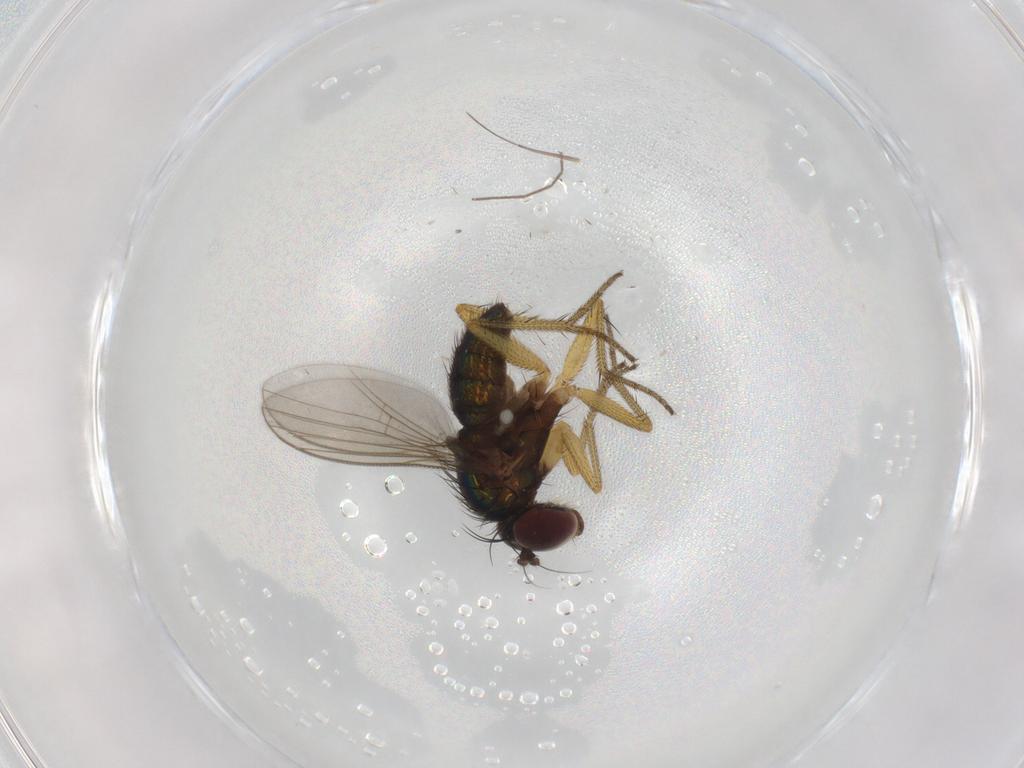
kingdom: Animalia
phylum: Arthropoda
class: Insecta
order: Diptera
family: Dolichopodidae
